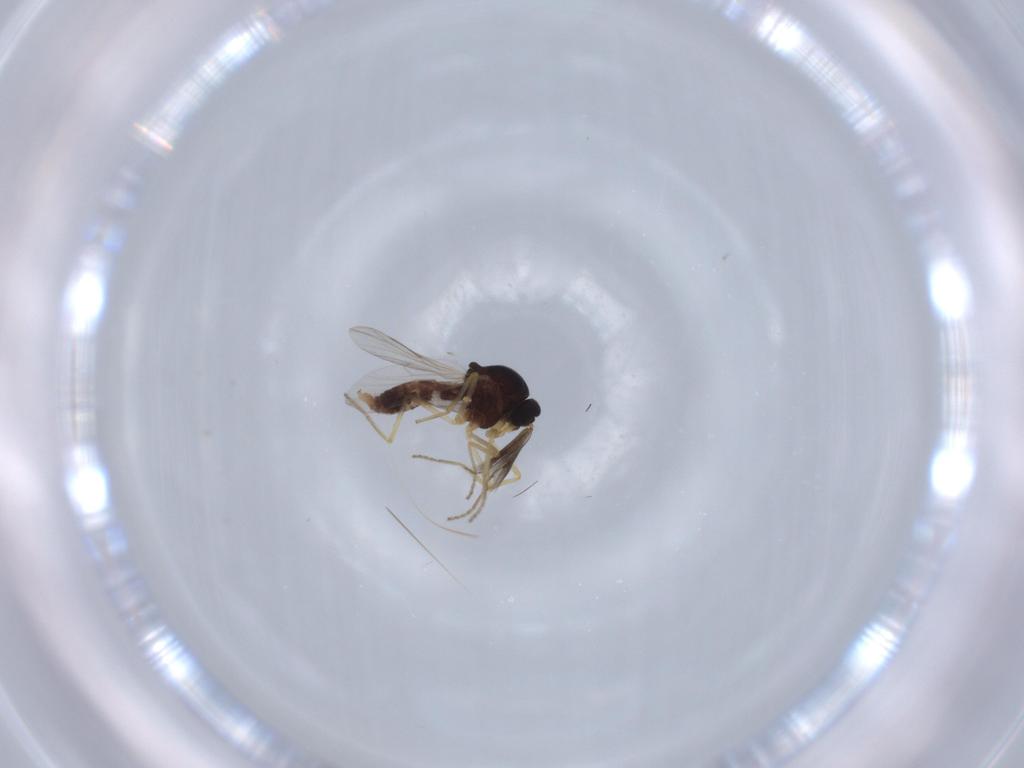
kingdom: Animalia
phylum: Arthropoda
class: Insecta
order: Diptera
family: Ceratopogonidae
